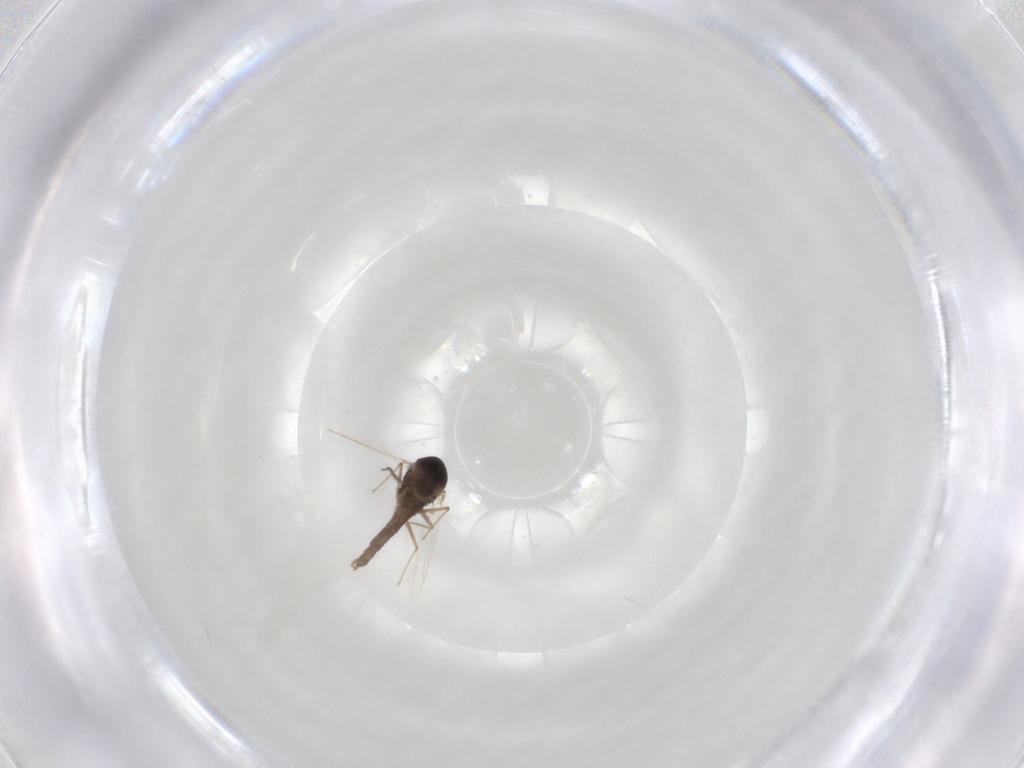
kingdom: Animalia
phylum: Arthropoda
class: Insecta
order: Diptera
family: Chironomidae
